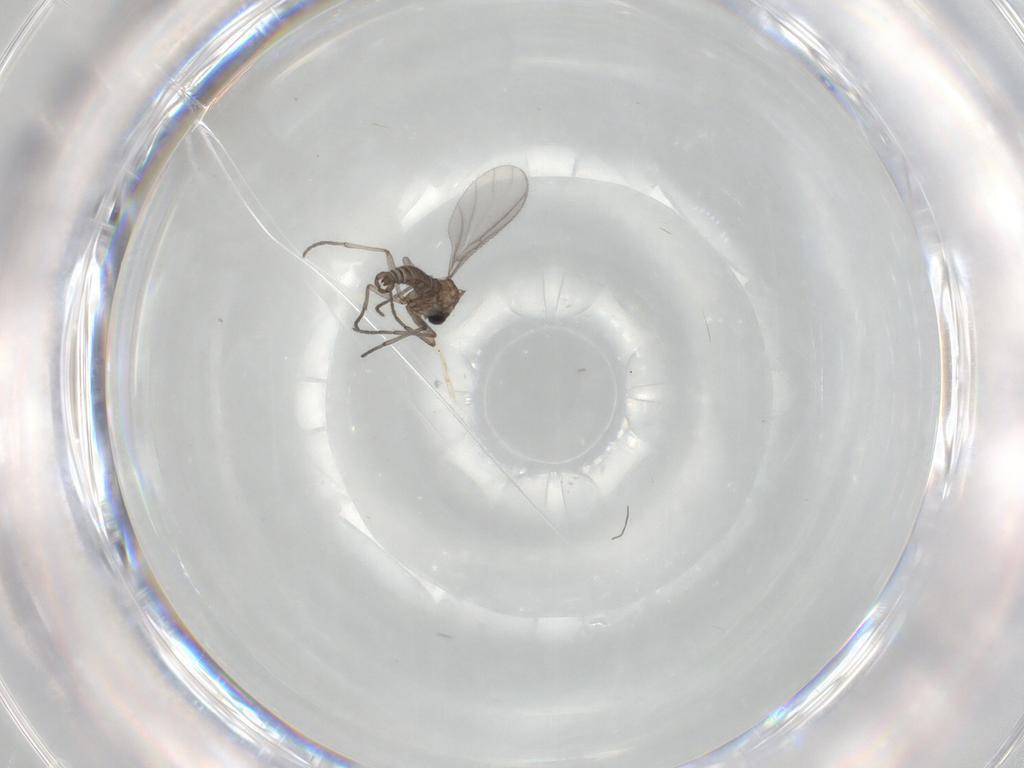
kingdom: Animalia
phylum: Arthropoda
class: Insecta
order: Diptera
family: Sciaridae
